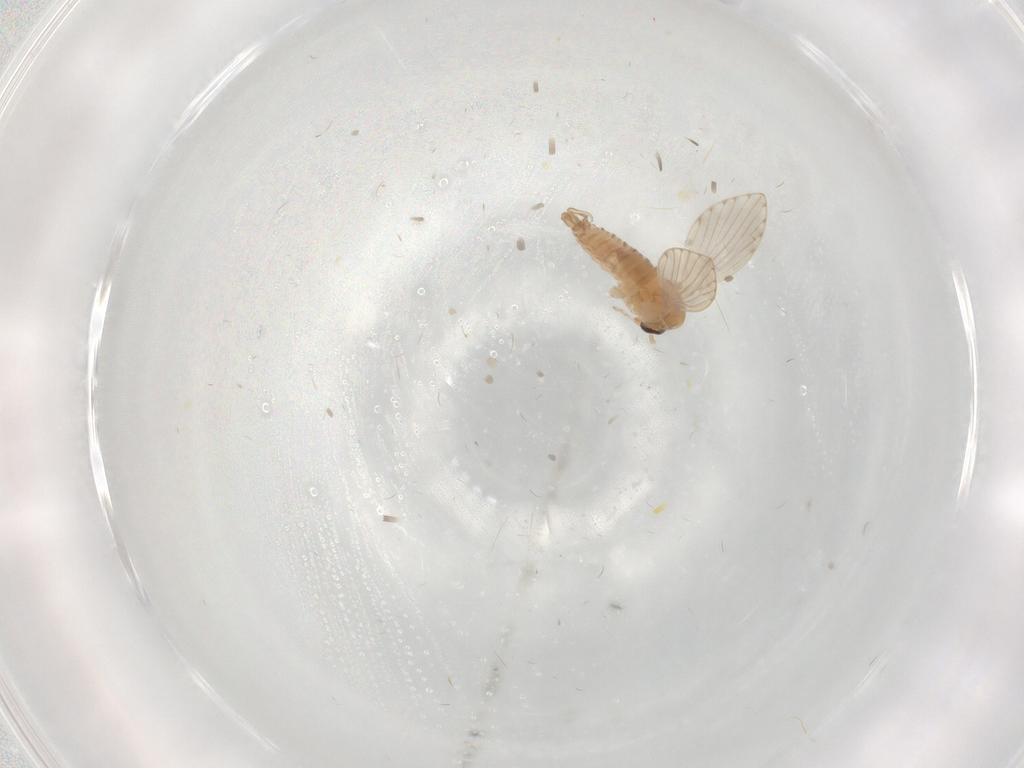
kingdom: Animalia
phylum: Arthropoda
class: Insecta
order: Diptera
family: Psychodidae
